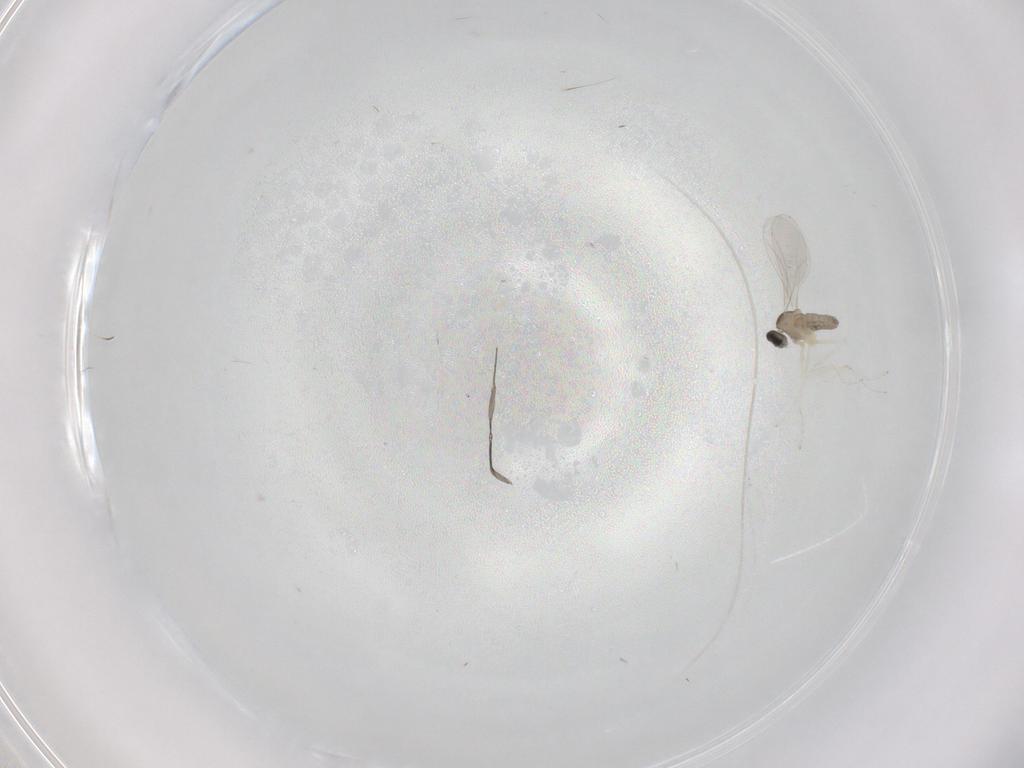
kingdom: Animalia
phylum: Arthropoda
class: Insecta
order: Diptera
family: Cecidomyiidae
